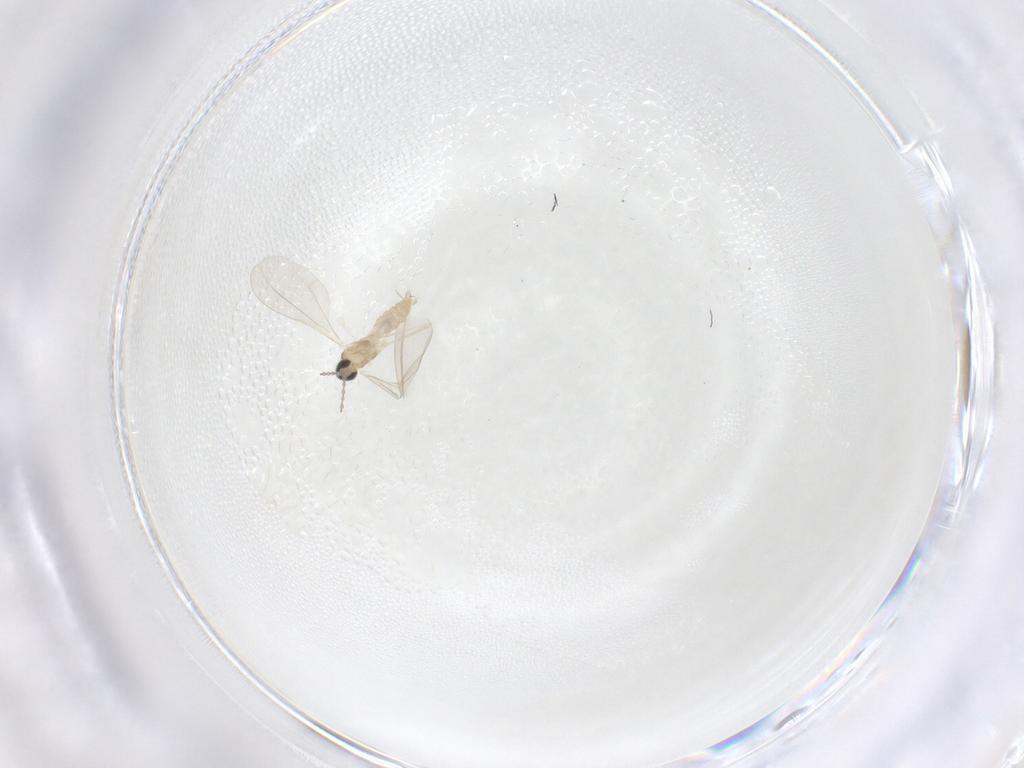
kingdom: Animalia
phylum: Arthropoda
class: Insecta
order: Diptera
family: Cecidomyiidae
